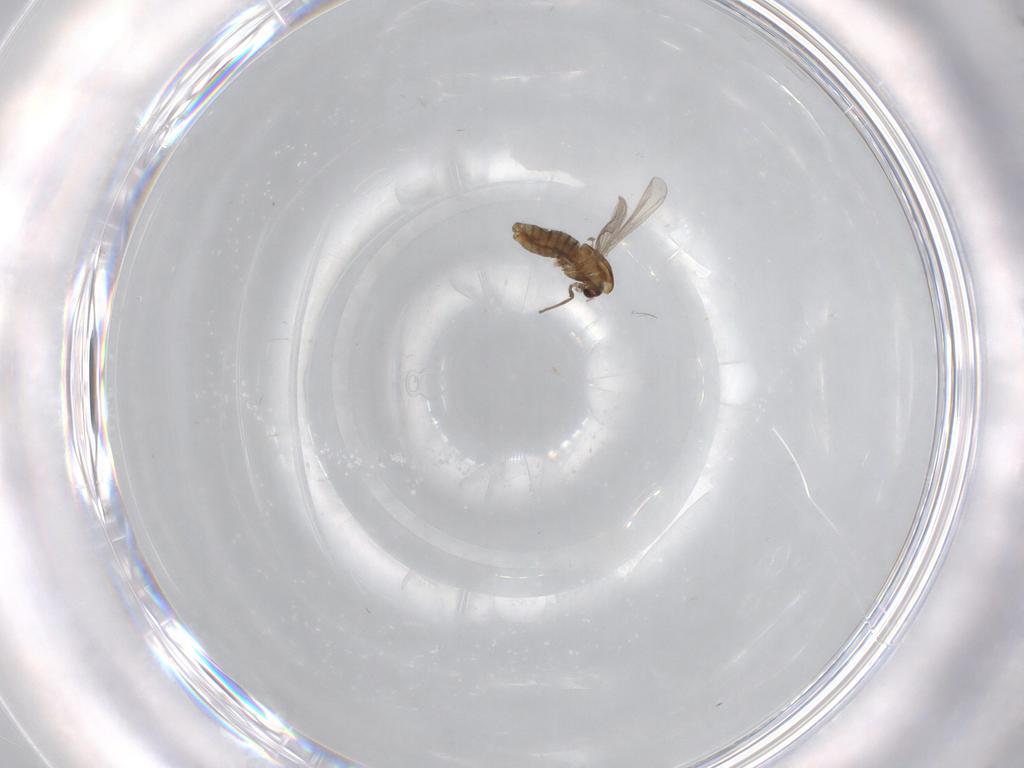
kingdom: Animalia
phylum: Arthropoda
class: Insecta
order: Diptera
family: Chironomidae
